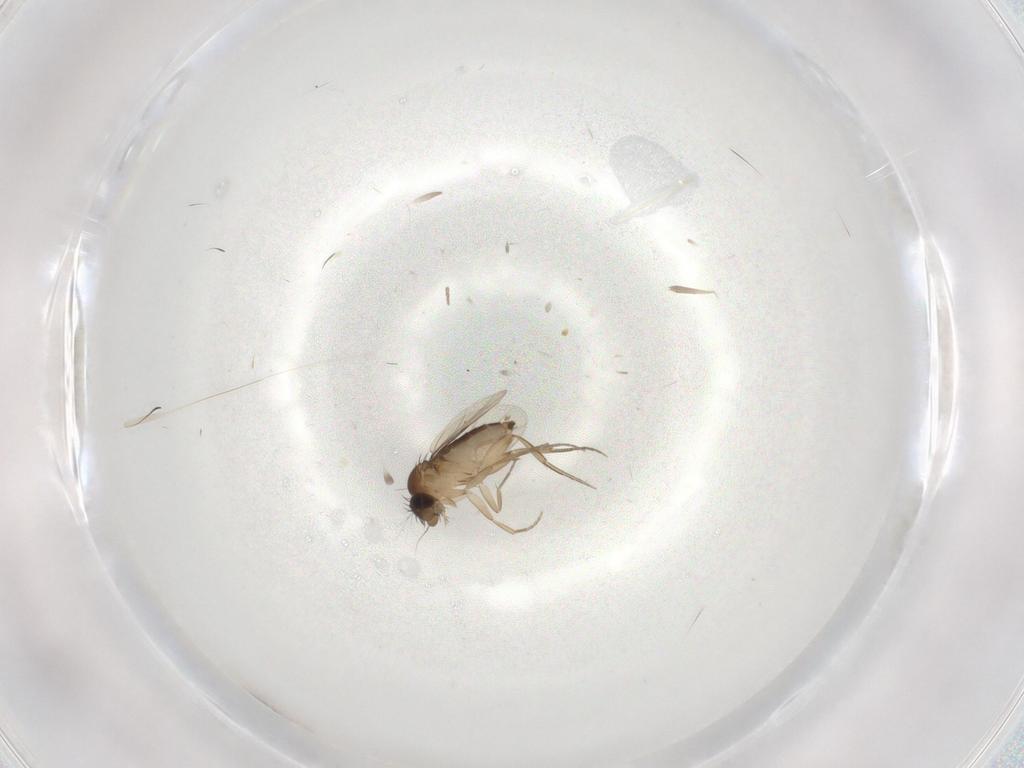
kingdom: Animalia
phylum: Arthropoda
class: Insecta
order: Diptera
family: Phoridae
